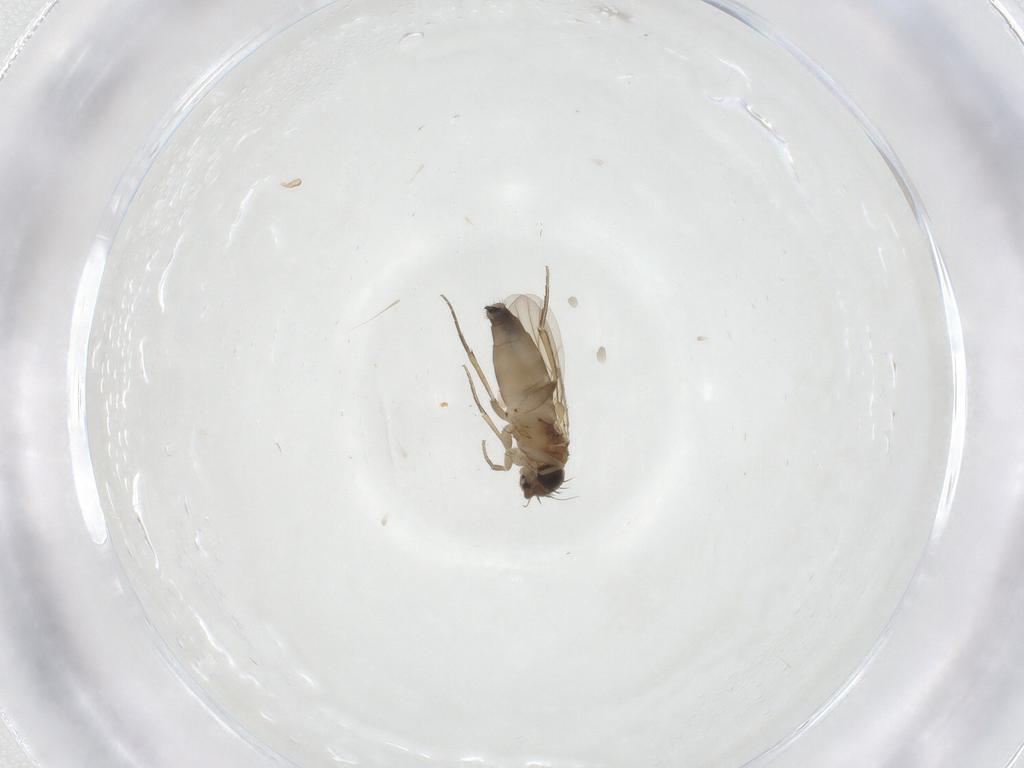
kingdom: Animalia
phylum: Arthropoda
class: Insecta
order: Diptera
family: Phoridae
